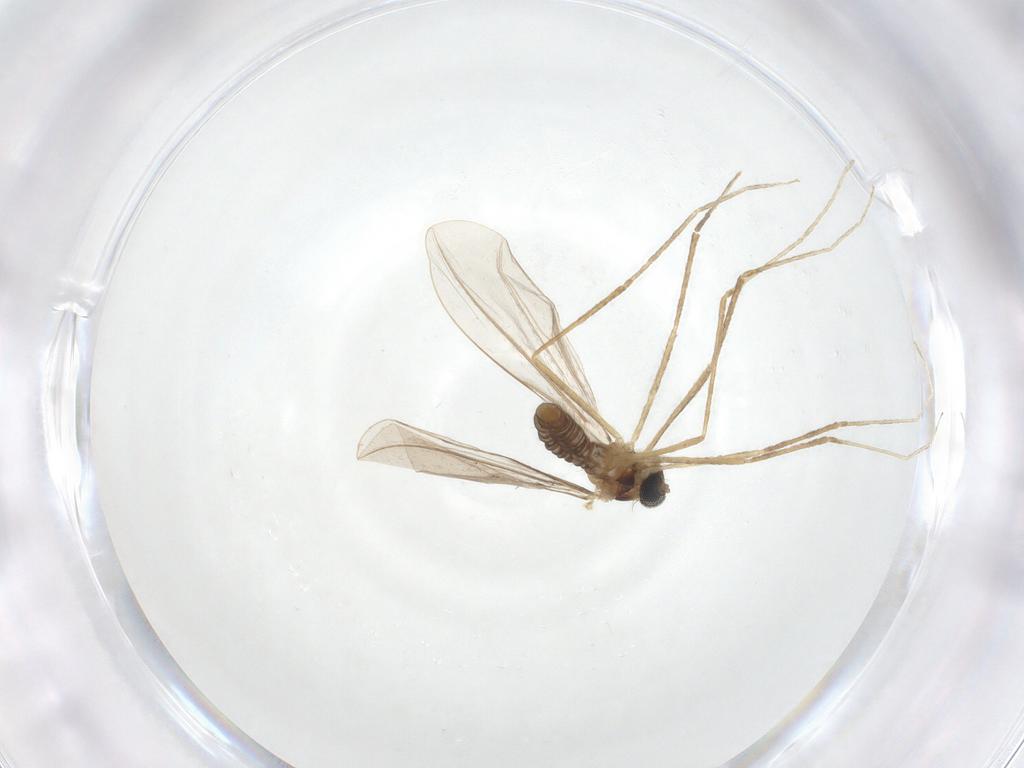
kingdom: Animalia
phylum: Arthropoda
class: Insecta
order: Diptera
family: Cecidomyiidae
